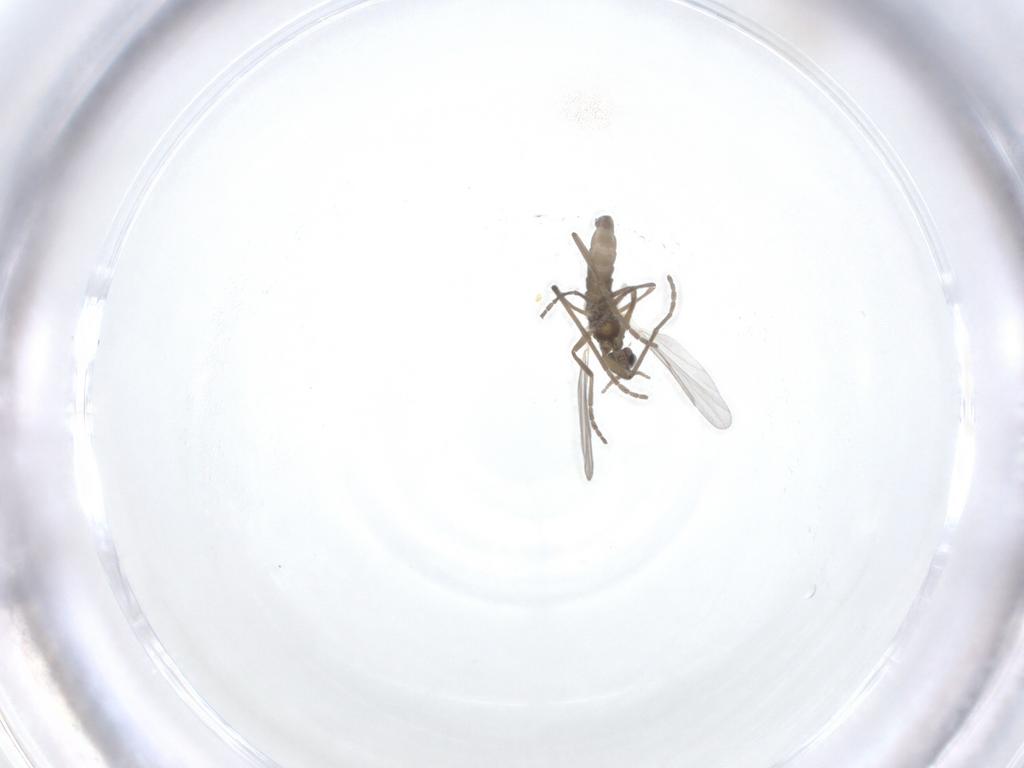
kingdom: Animalia
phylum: Arthropoda
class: Insecta
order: Diptera
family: Cecidomyiidae
